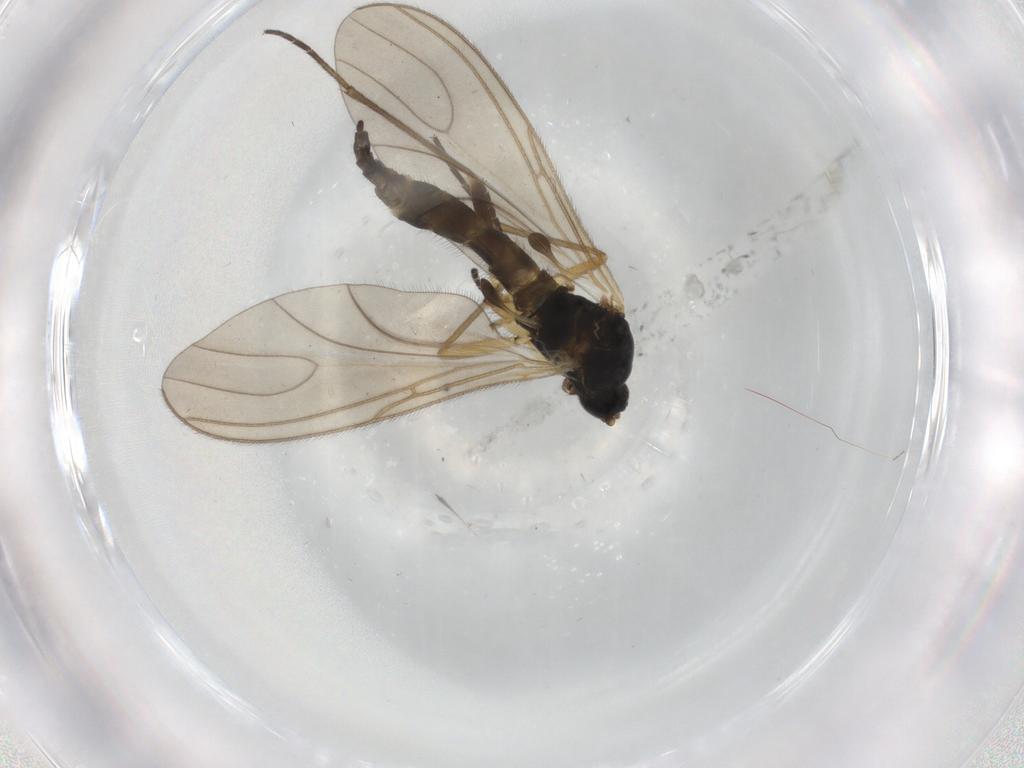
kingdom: Animalia
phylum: Arthropoda
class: Insecta
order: Diptera
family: Sciaridae
